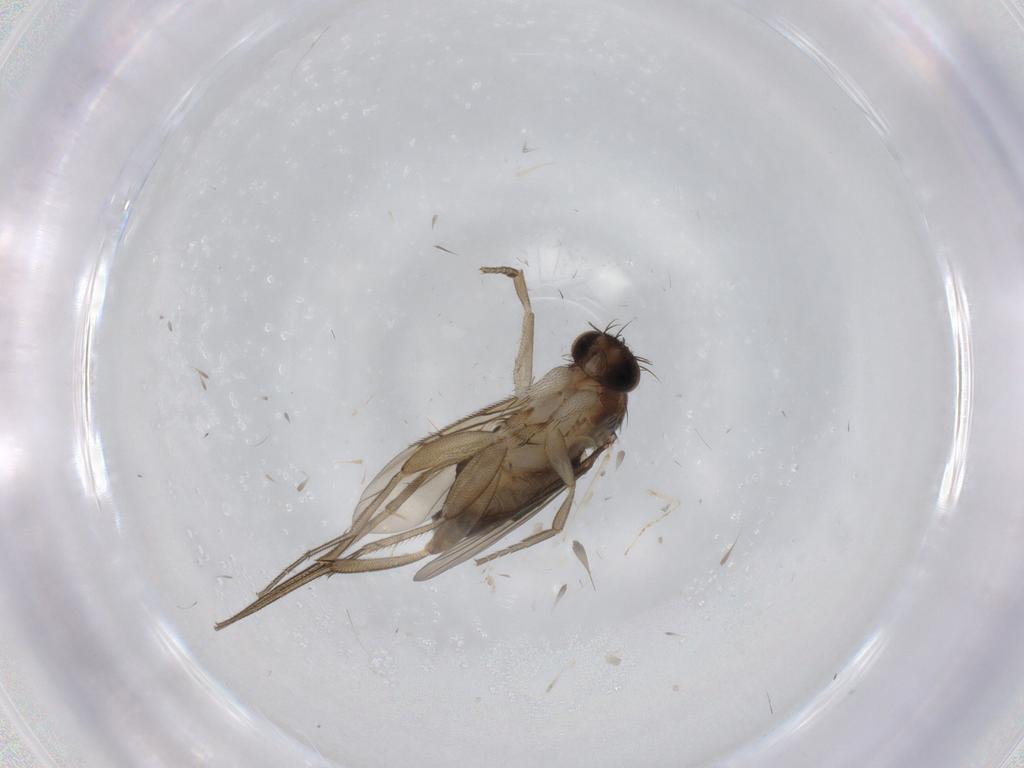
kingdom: Animalia
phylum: Arthropoda
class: Insecta
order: Diptera
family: Phoridae
